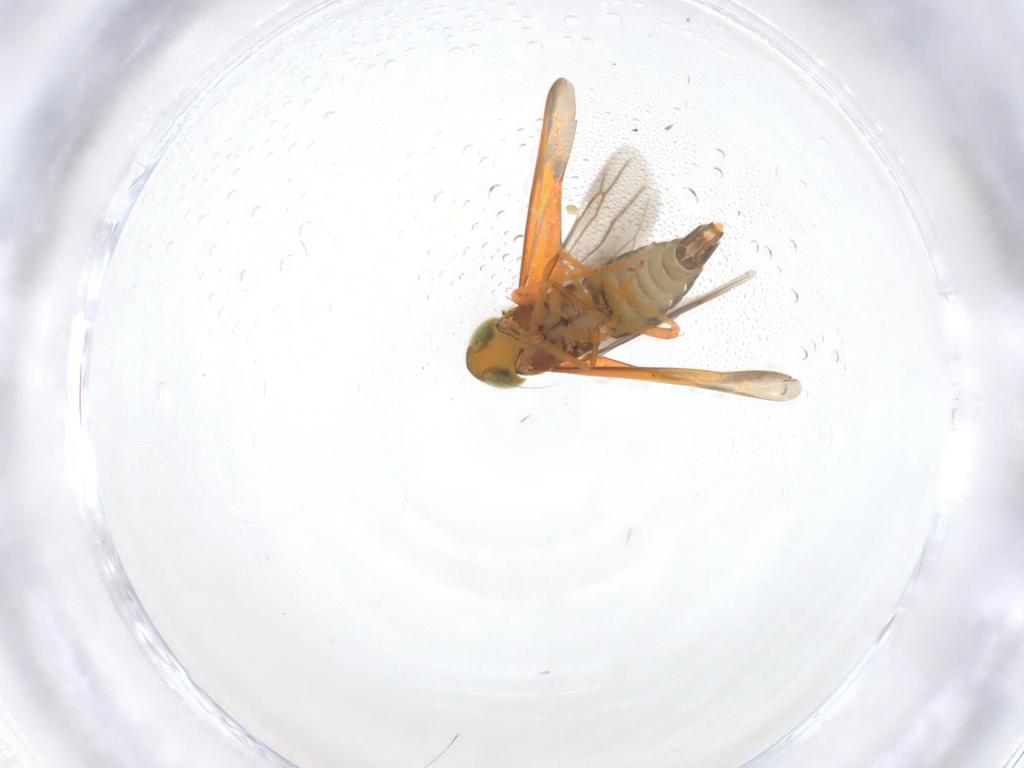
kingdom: Animalia
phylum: Arthropoda
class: Insecta
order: Hemiptera
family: Cicadellidae
